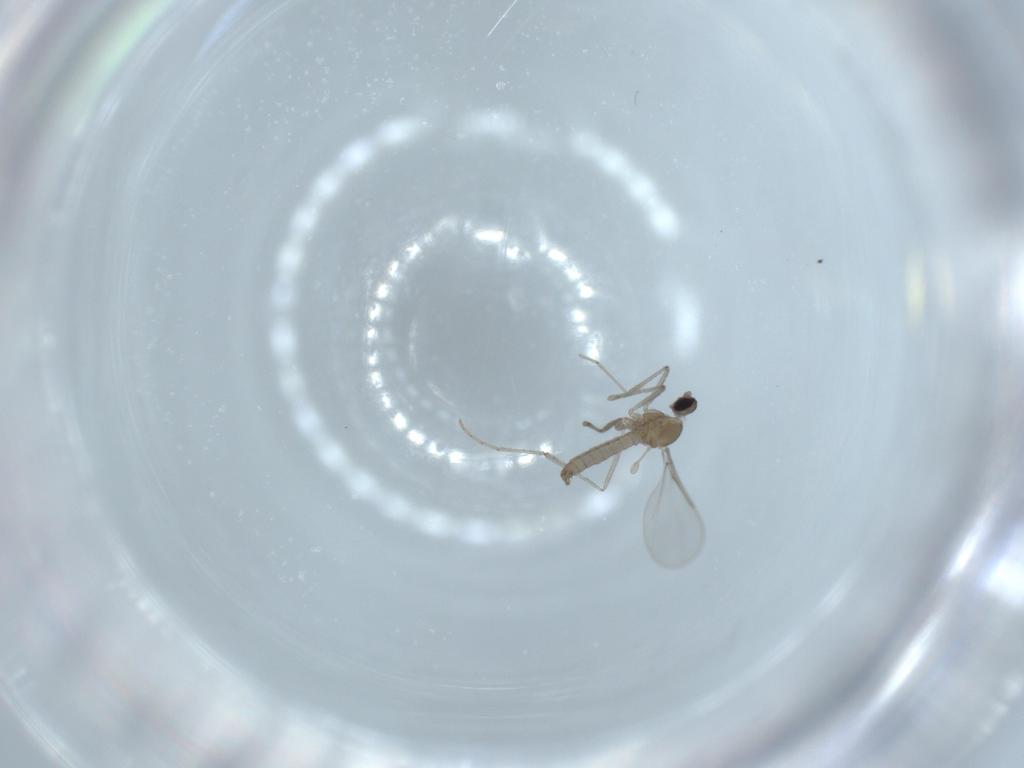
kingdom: Animalia
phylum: Arthropoda
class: Insecta
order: Diptera
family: Cecidomyiidae
